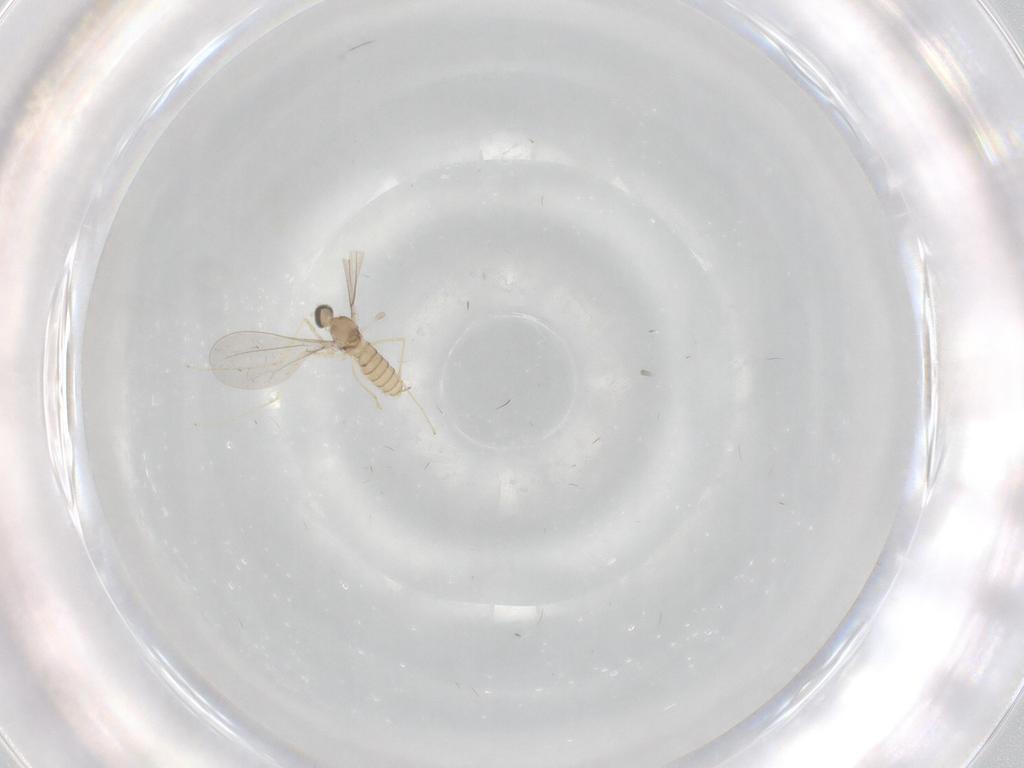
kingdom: Animalia
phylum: Arthropoda
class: Insecta
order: Diptera
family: Cecidomyiidae
